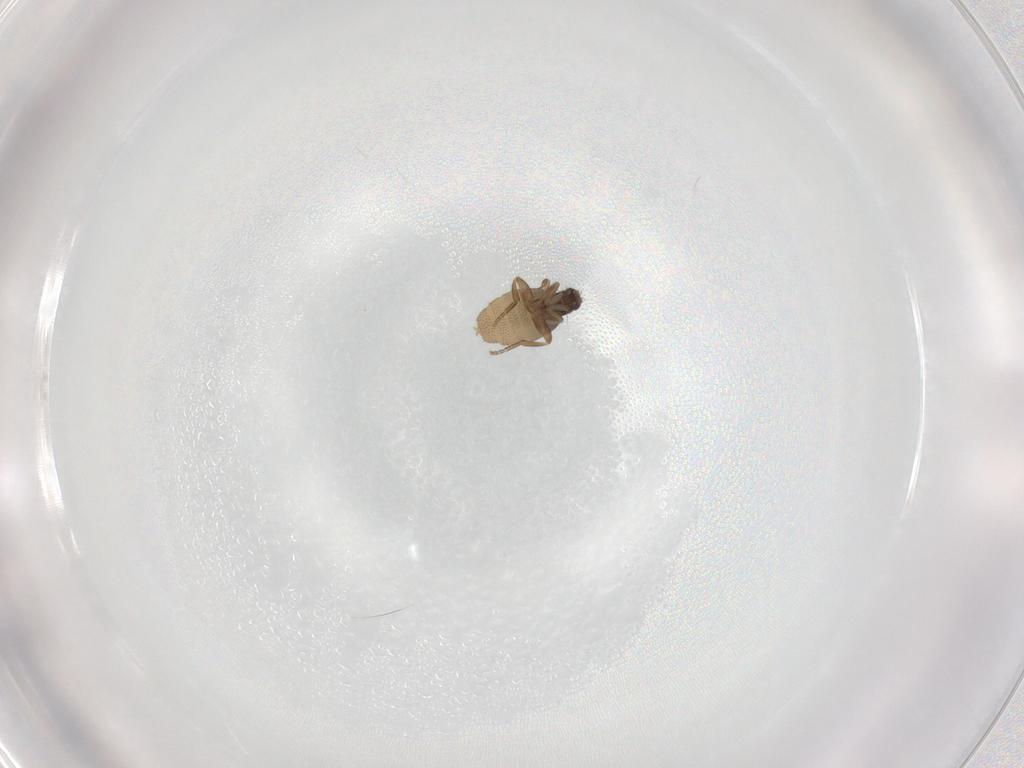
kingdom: Animalia
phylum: Arthropoda
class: Insecta
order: Diptera
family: Phoridae
